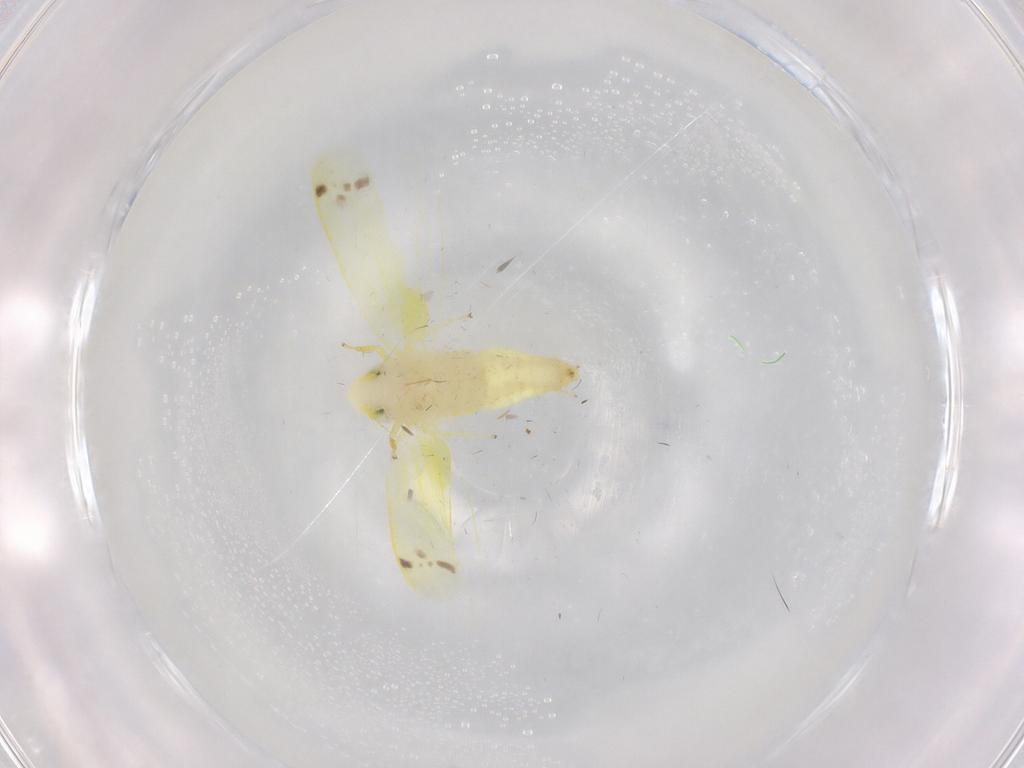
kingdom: Animalia
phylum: Arthropoda
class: Insecta
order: Hemiptera
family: Cicadellidae
